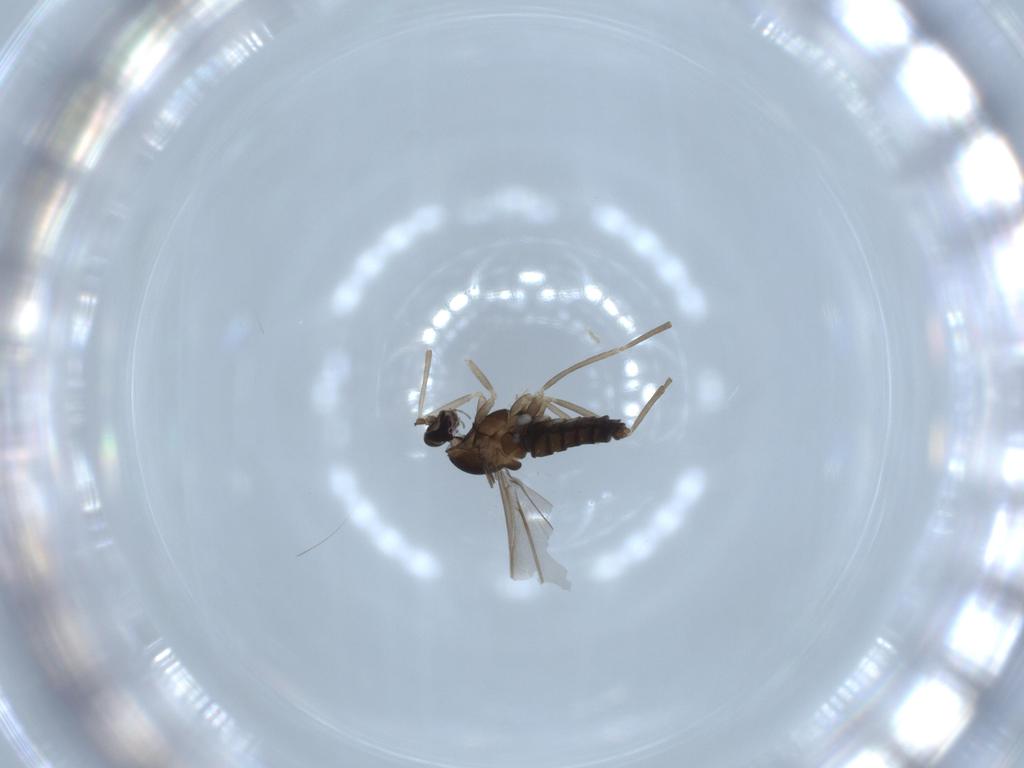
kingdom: Animalia
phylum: Arthropoda
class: Insecta
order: Diptera
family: Cecidomyiidae
